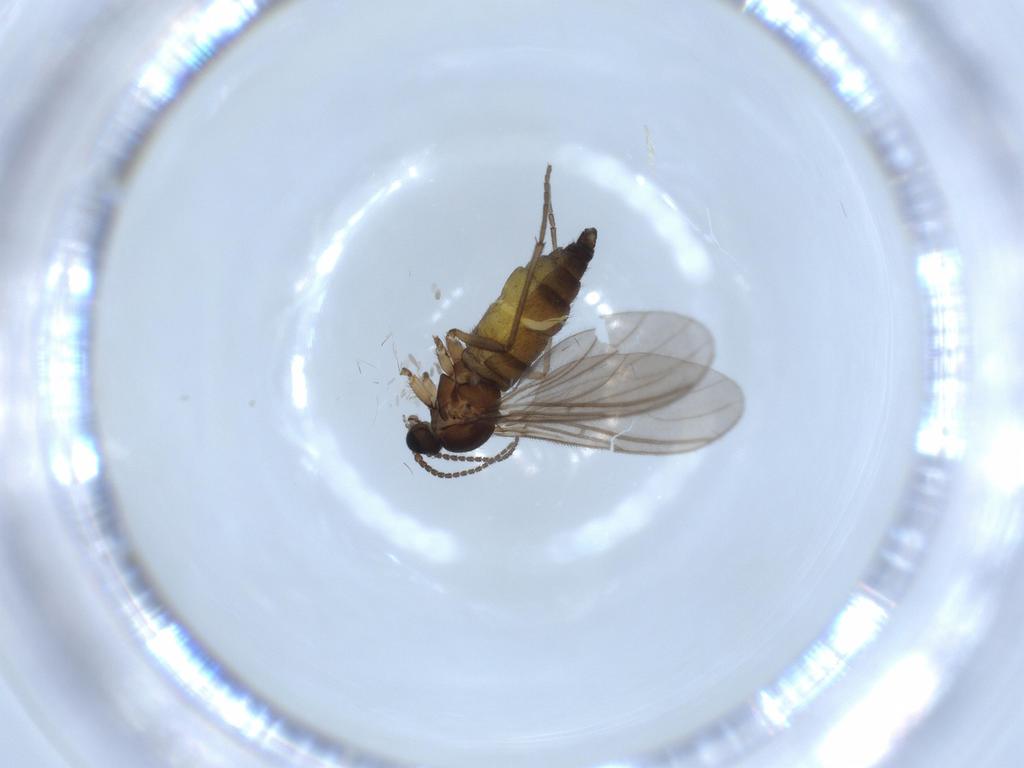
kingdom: Animalia
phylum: Arthropoda
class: Insecta
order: Diptera
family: Sciaridae
